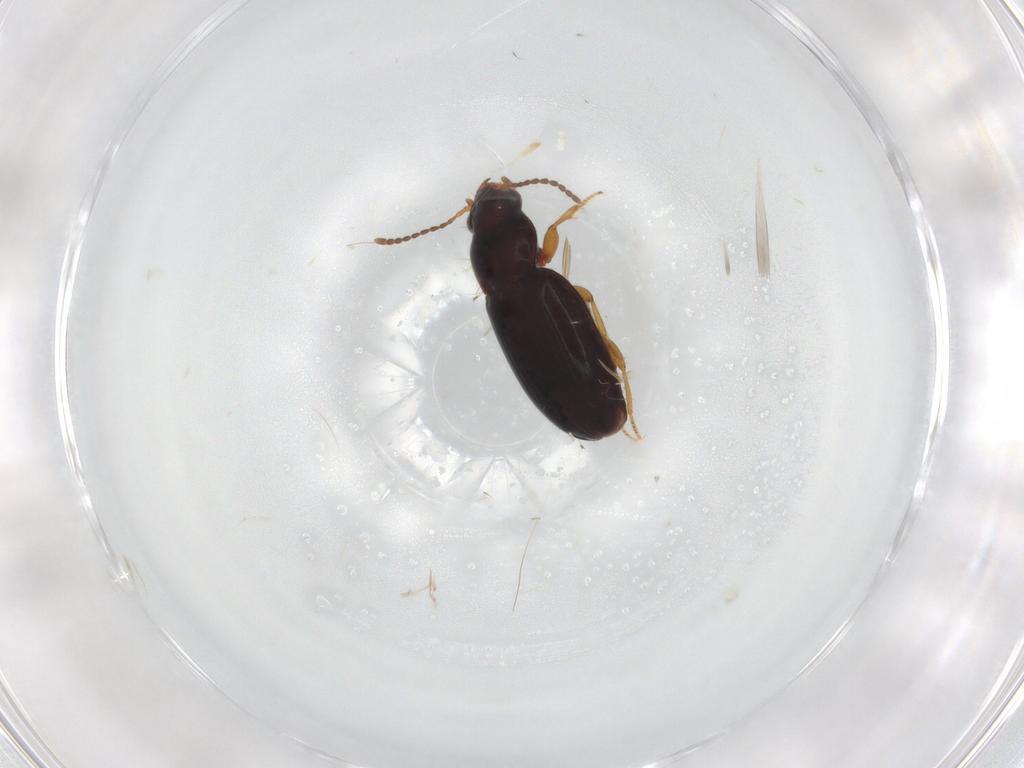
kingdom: Animalia
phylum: Arthropoda
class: Insecta
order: Coleoptera
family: Carabidae
